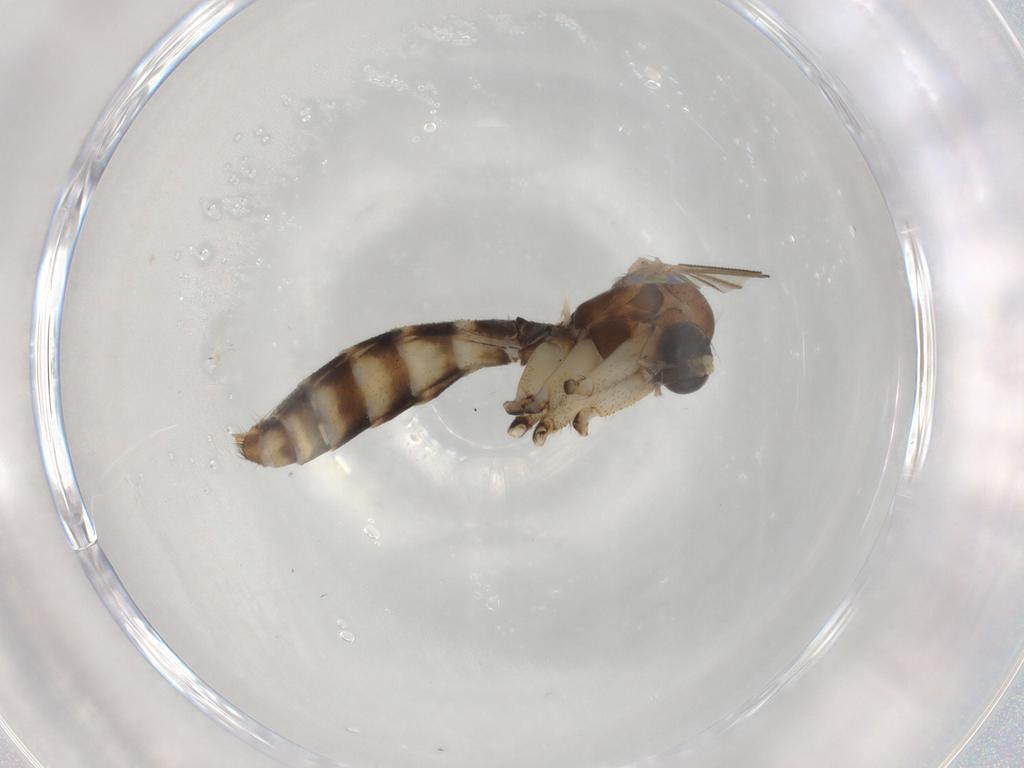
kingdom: Animalia
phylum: Arthropoda
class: Insecta
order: Diptera
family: Mycetophilidae
